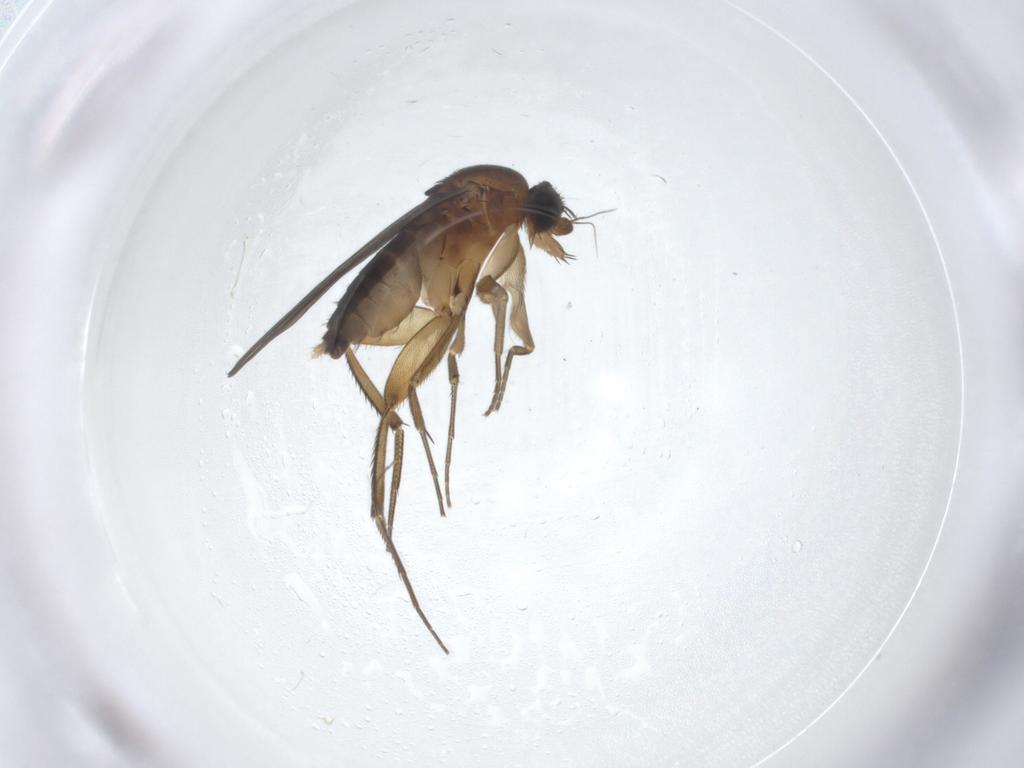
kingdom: Animalia
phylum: Arthropoda
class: Insecta
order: Diptera
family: Phoridae
